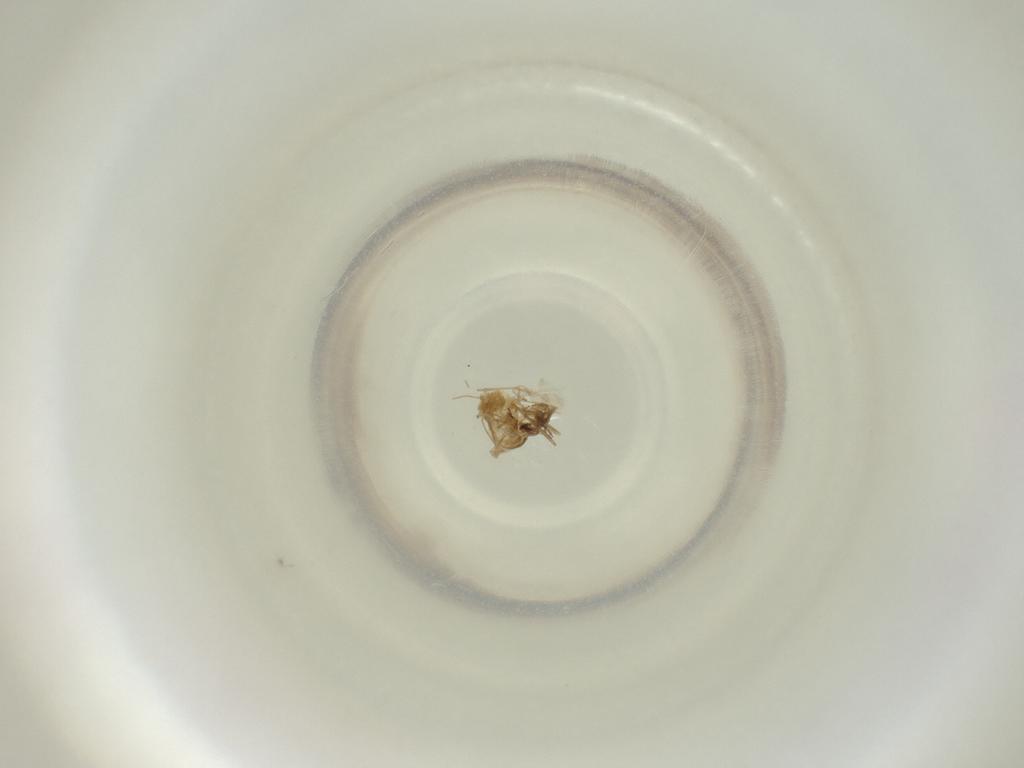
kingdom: Animalia
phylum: Arthropoda
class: Insecta
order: Diptera
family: Cecidomyiidae
